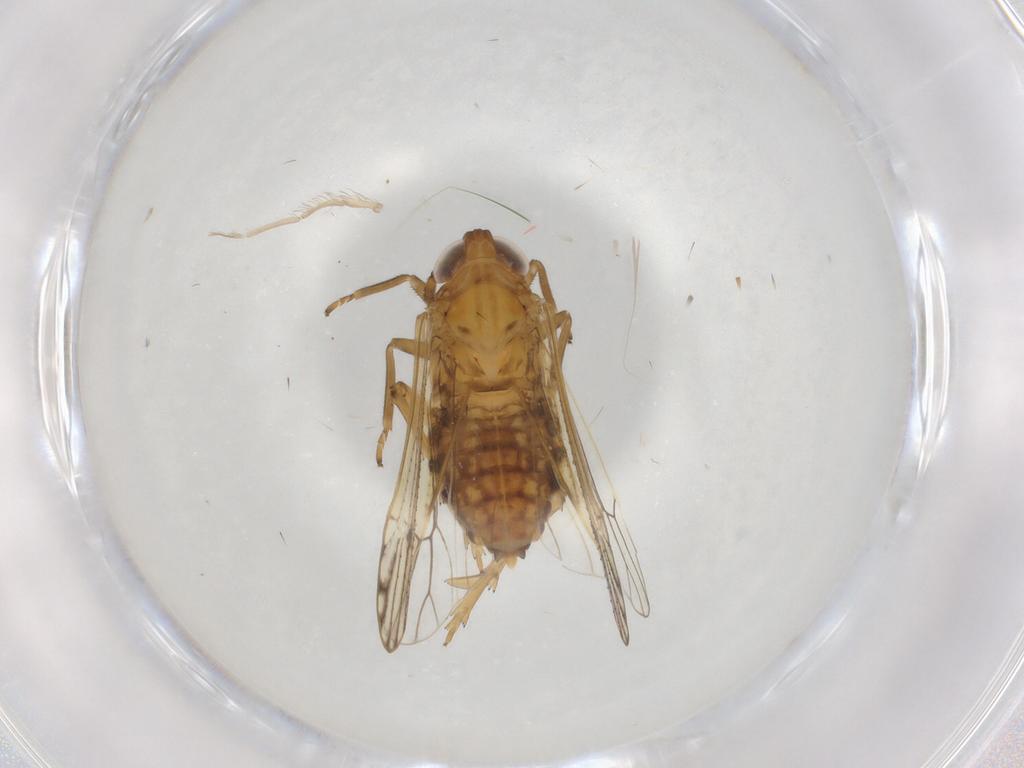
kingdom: Animalia
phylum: Arthropoda
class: Insecta
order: Hemiptera
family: Delphacidae
